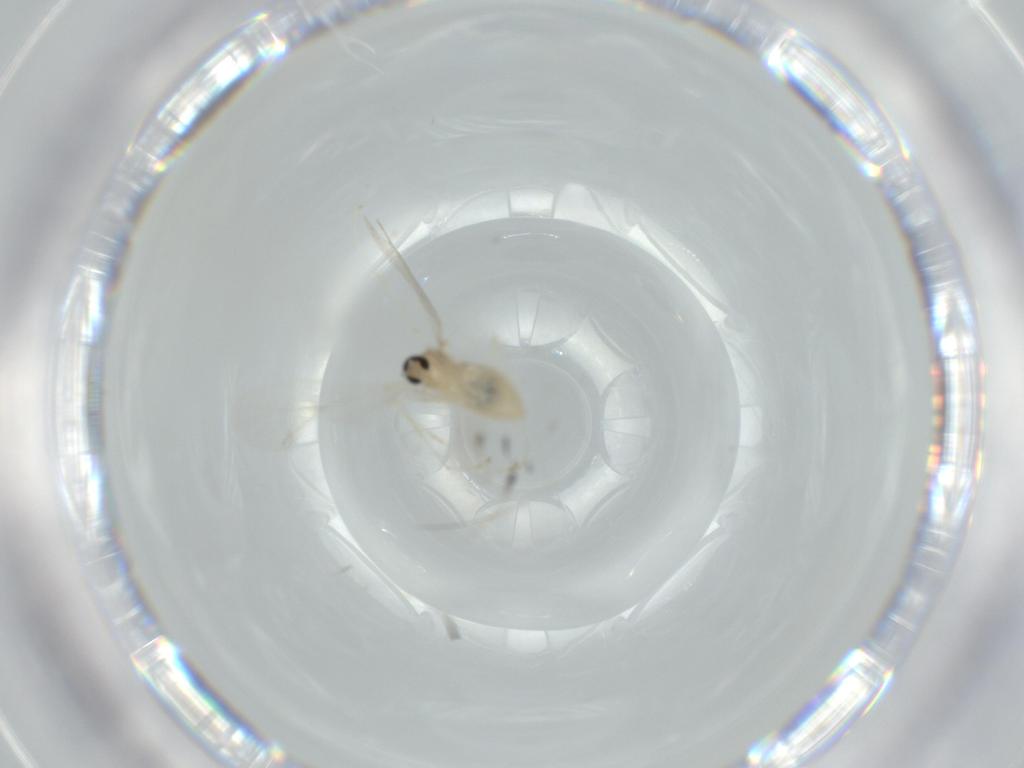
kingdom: Animalia
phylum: Arthropoda
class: Insecta
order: Diptera
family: Cecidomyiidae
